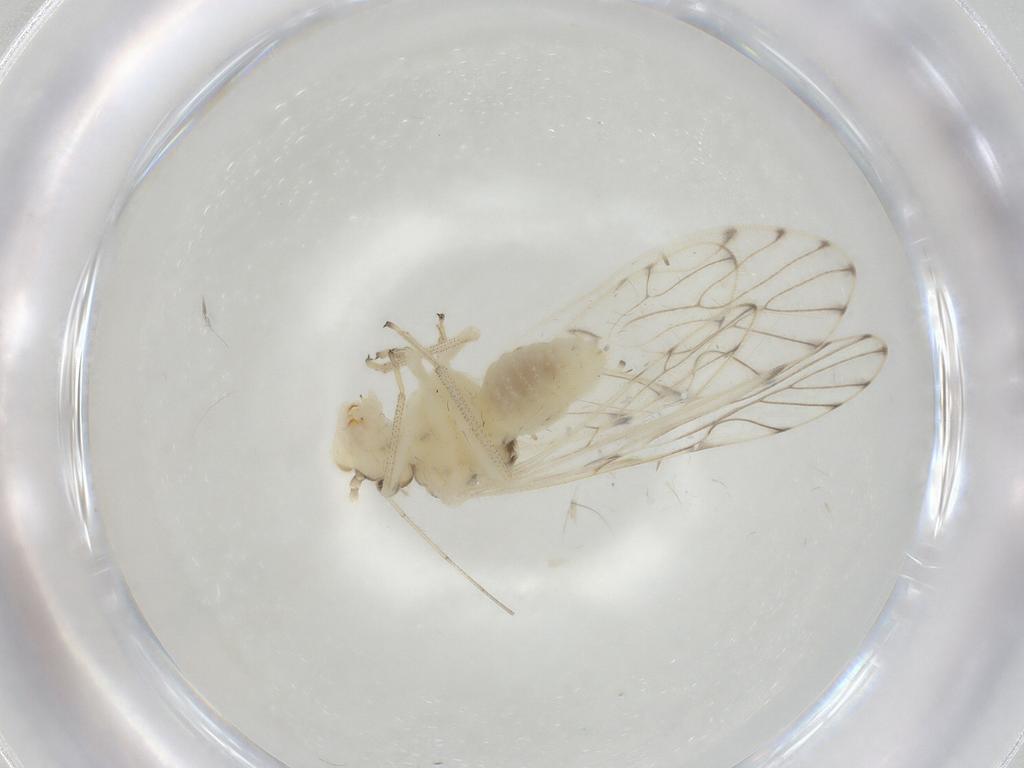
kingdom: Animalia
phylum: Arthropoda
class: Insecta
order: Psocodea
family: Philotarsidae
